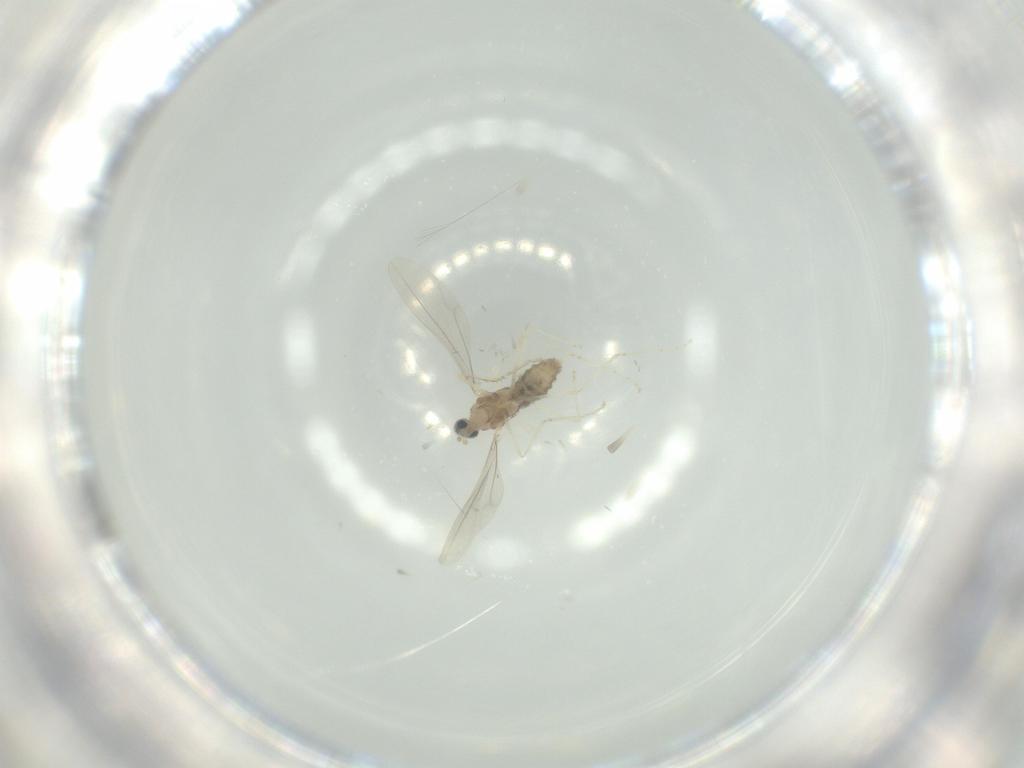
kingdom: Animalia
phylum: Arthropoda
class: Insecta
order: Diptera
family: Cecidomyiidae
